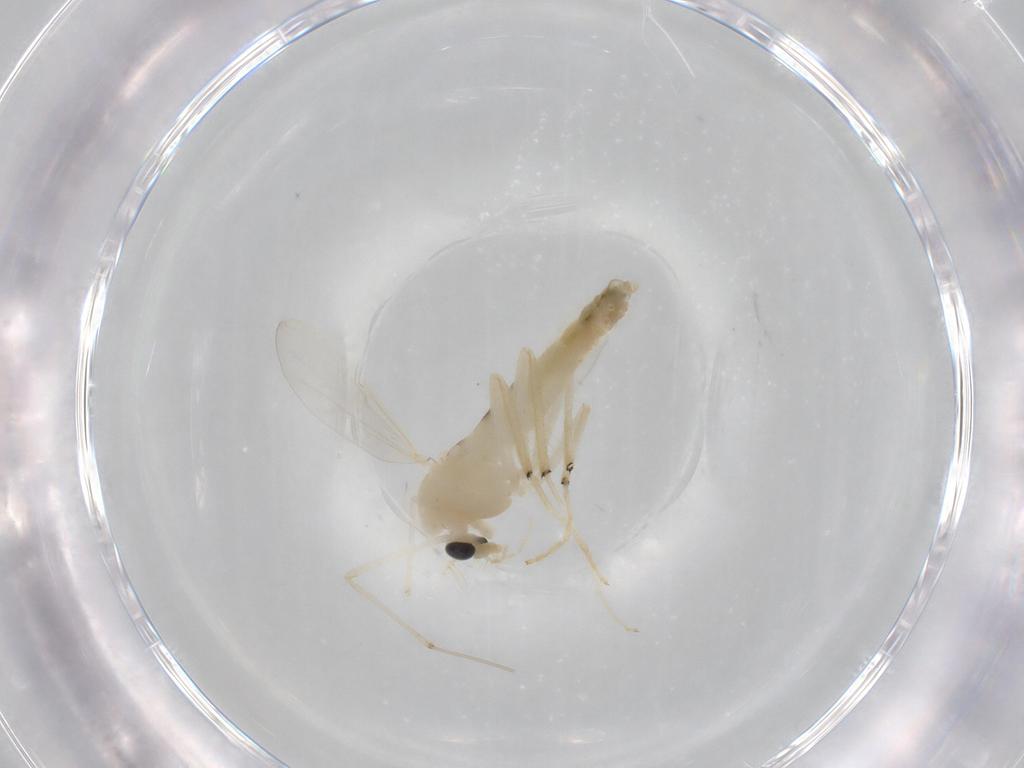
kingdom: Animalia
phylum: Arthropoda
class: Insecta
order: Diptera
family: Chironomidae
